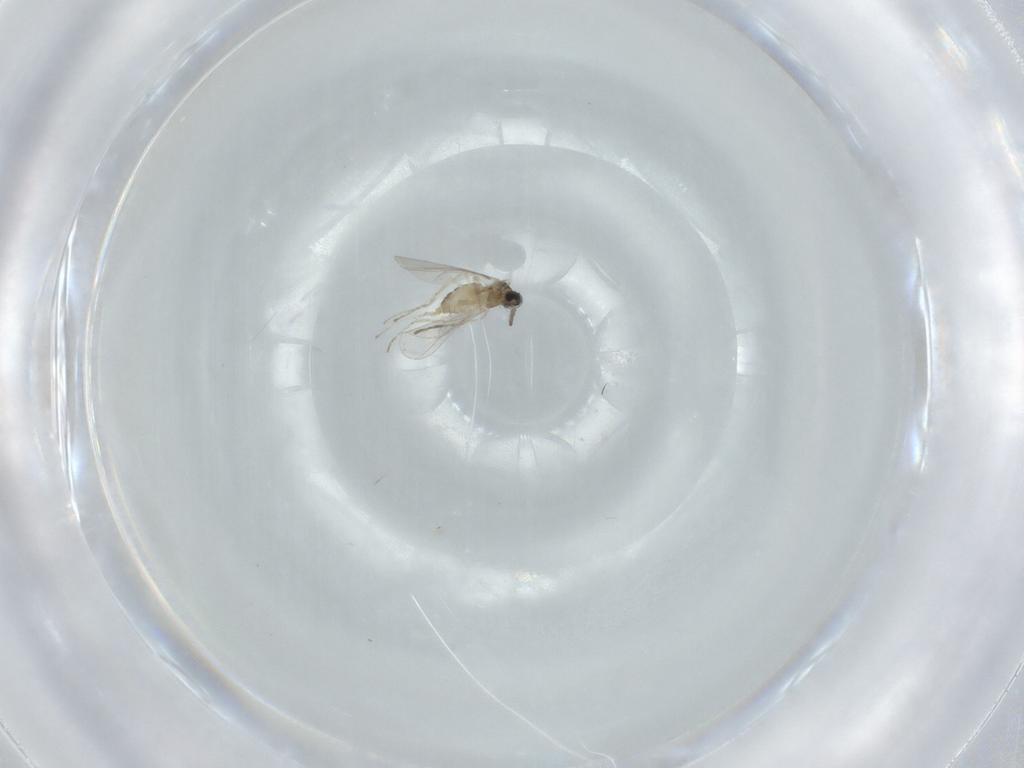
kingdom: Animalia
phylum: Arthropoda
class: Insecta
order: Diptera
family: Cecidomyiidae
